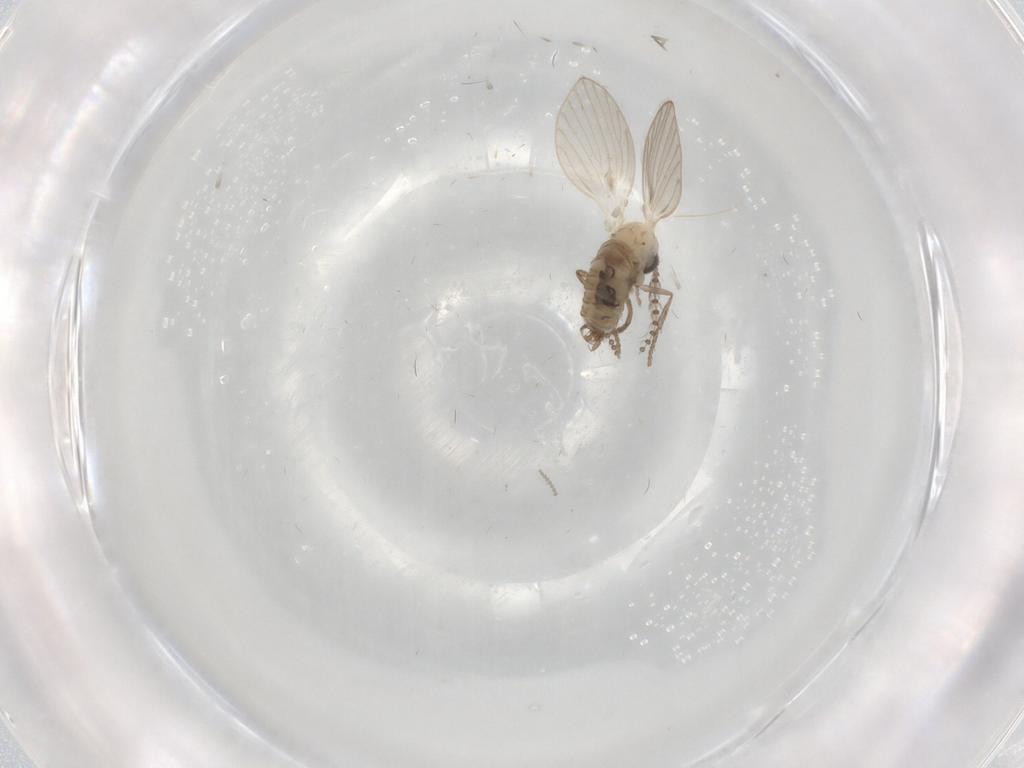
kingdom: Animalia
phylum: Arthropoda
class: Insecta
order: Diptera
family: Psychodidae
